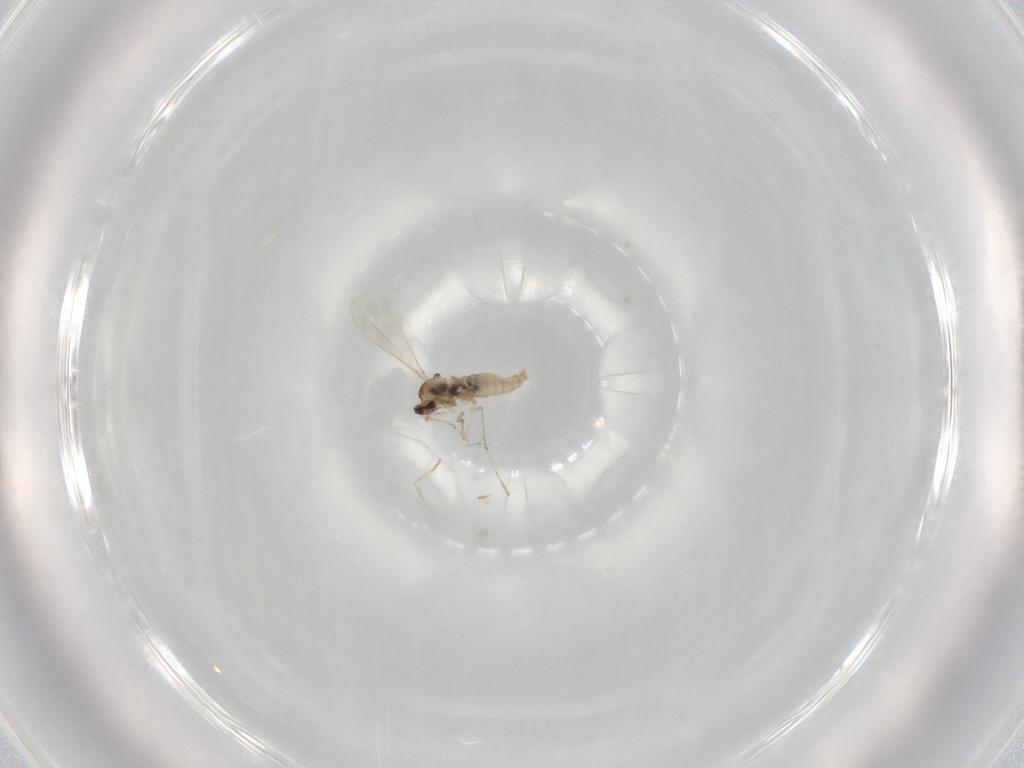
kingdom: Animalia
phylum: Arthropoda
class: Insecta
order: Diptera
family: Cecidomyiidae
